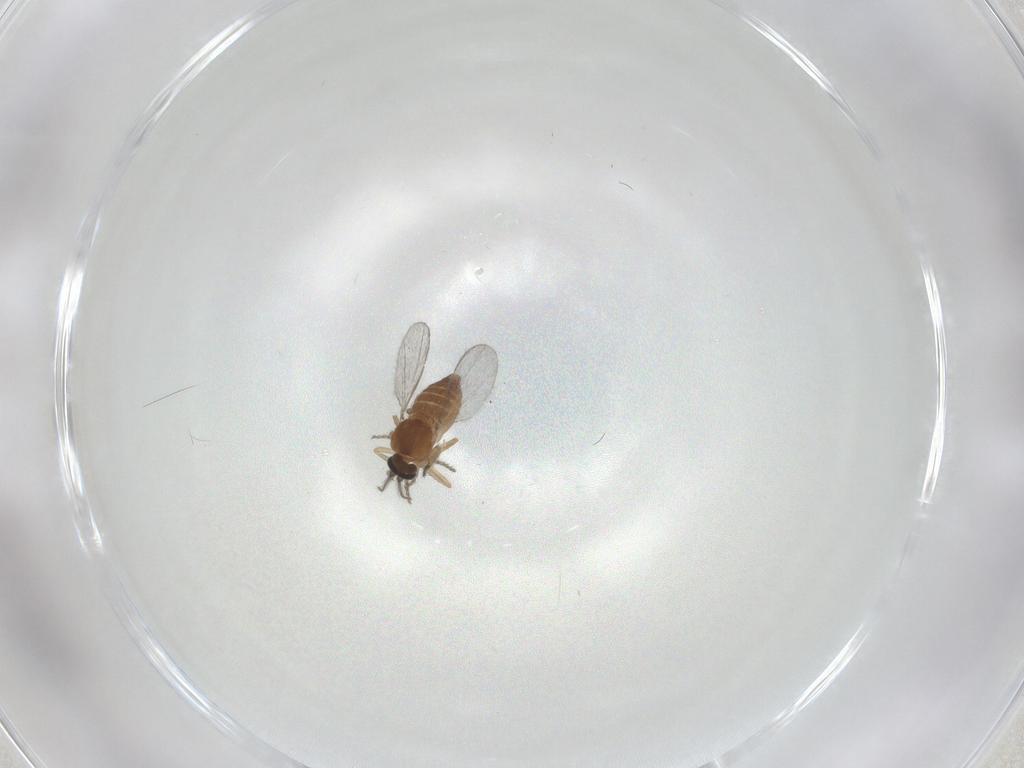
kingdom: Animalia
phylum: Arthropoda
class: Insecta
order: Diptera
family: Ceratopogonidae
